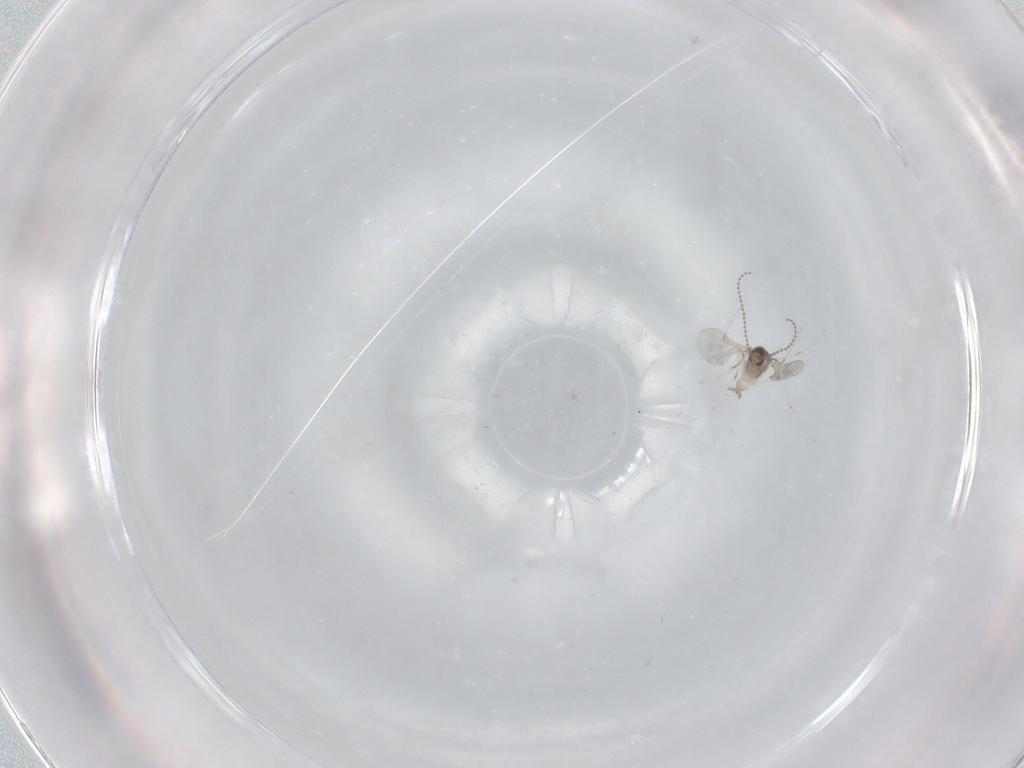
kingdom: Animalia
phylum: Arthropoda
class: Insecta
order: Diptera
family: Cecidomyiidae
